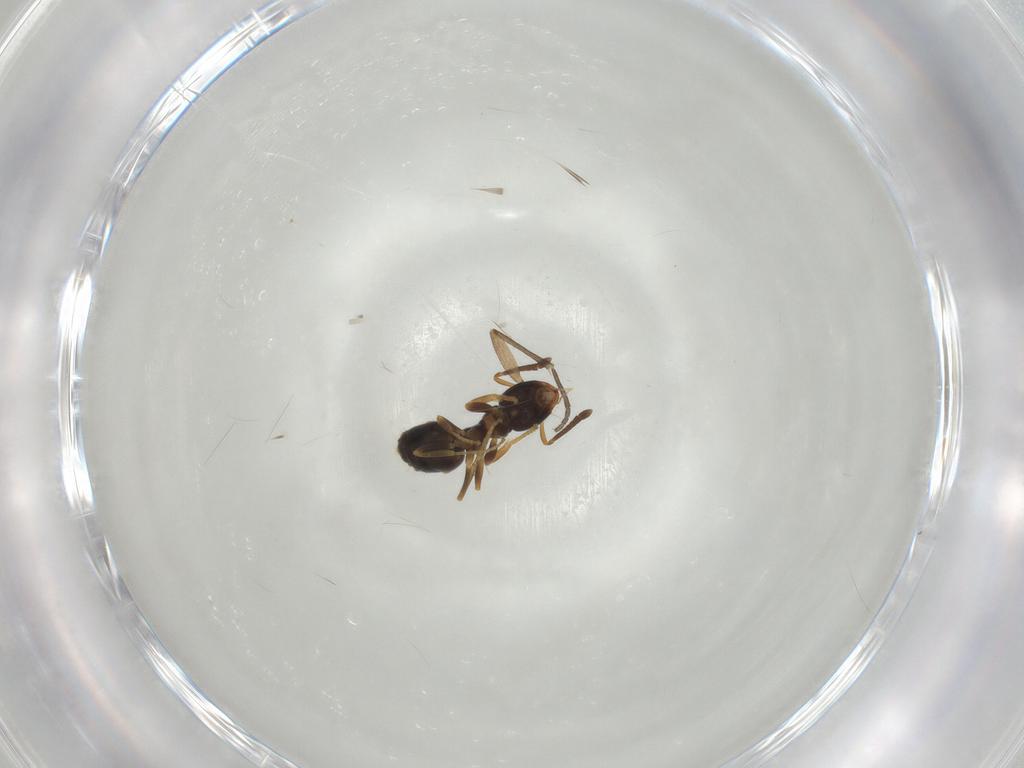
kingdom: Animalia
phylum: Arthropoda
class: Insecta
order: Hymenoptera
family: Formicidae
